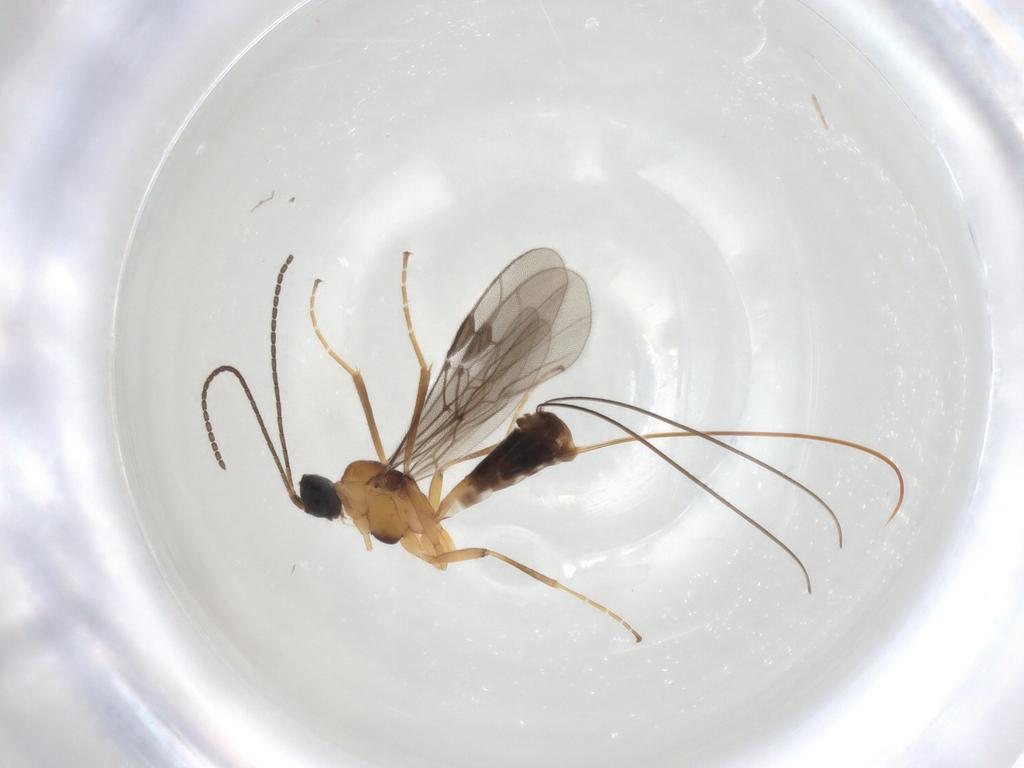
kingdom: Animalia
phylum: Arthropoda
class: Insecta
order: Hymenoptera
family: Braconidae
